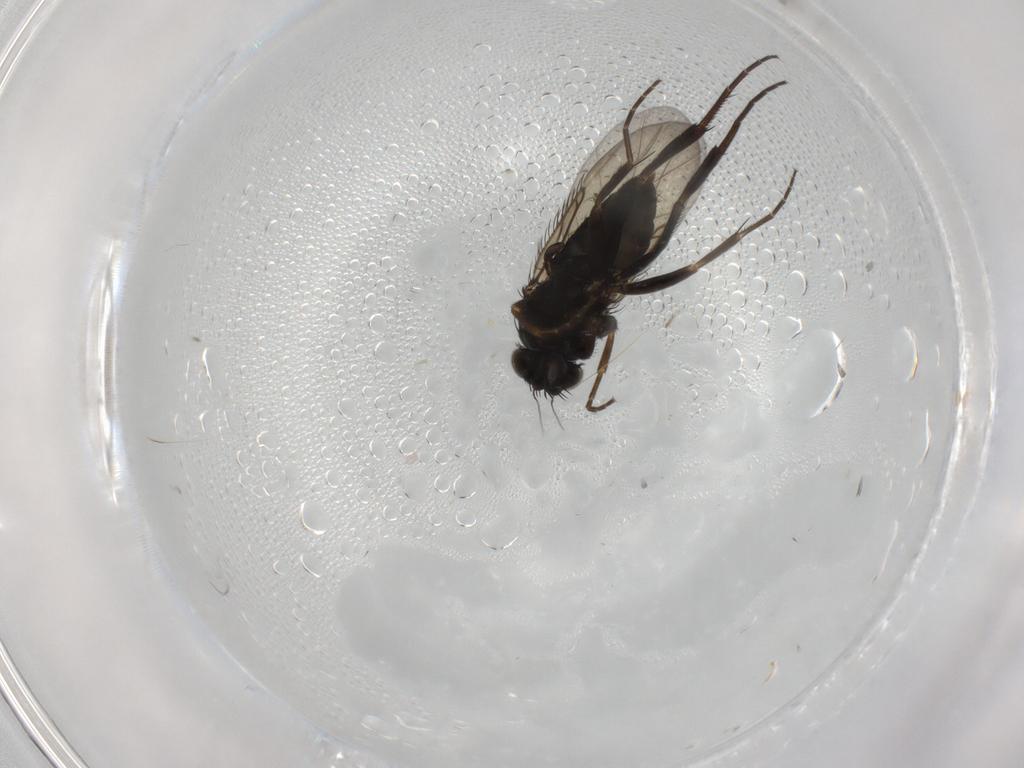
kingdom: Animalia
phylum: Arthropoda
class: Insecta
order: Diptera
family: Phoridae
